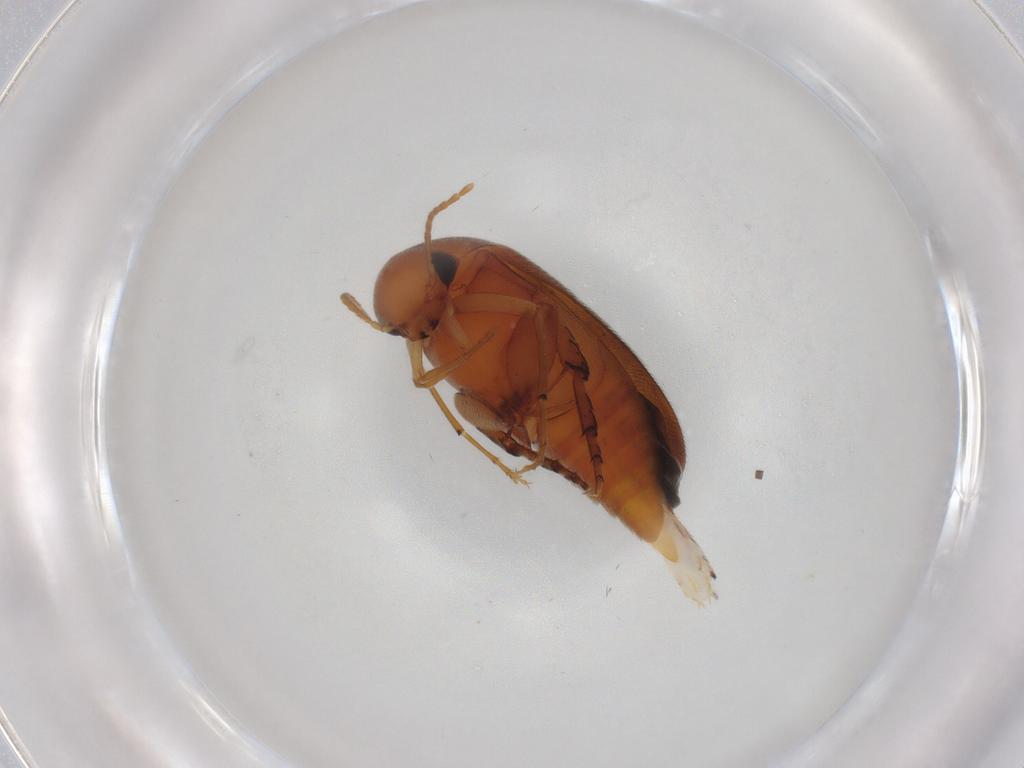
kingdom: Animalia
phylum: Arthropoda
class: Insecta
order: Coleoptera
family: Mordellidae
